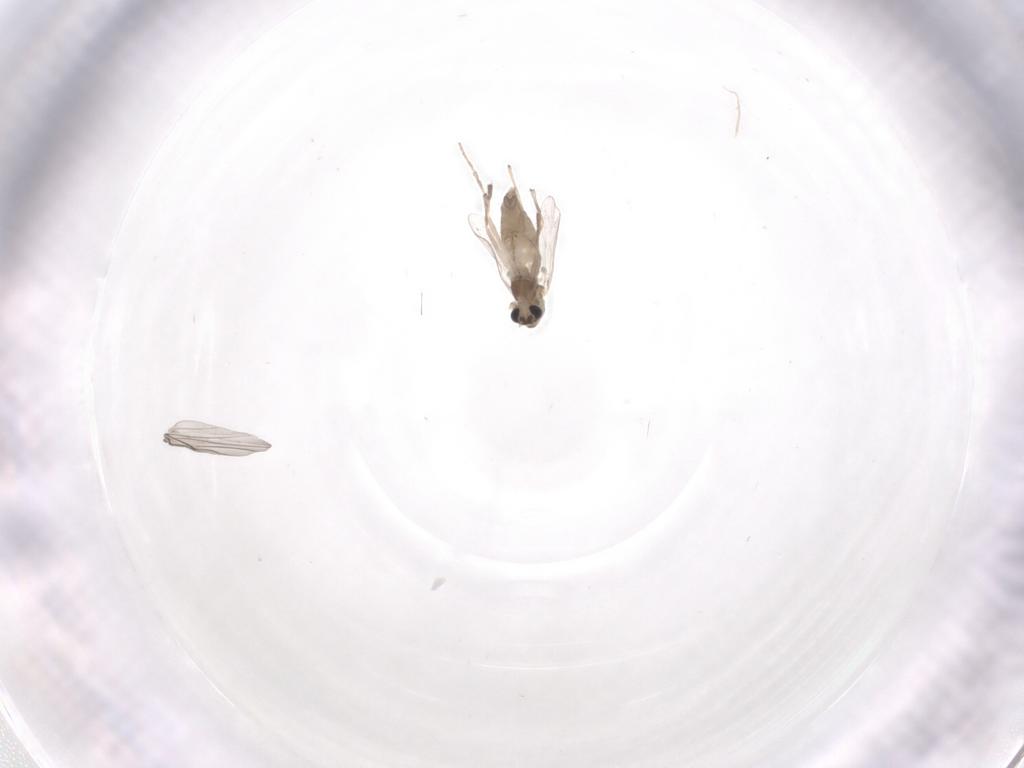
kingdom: Animalia
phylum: Arthropoda
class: Insecta
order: Diptera
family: Chironomidae
